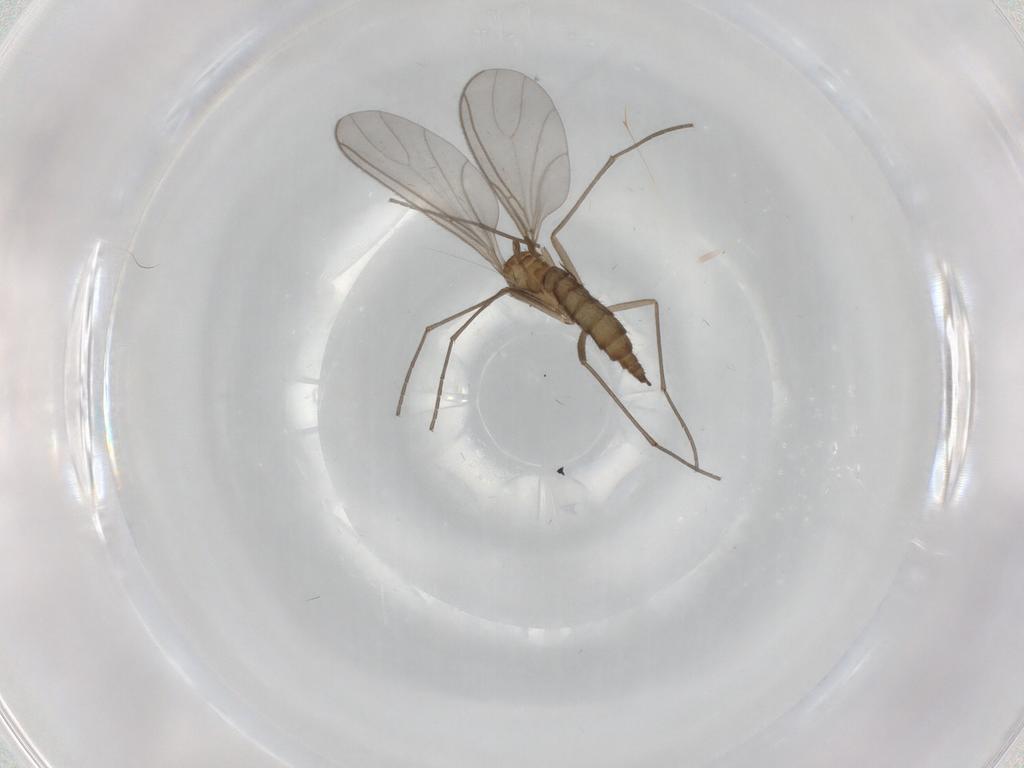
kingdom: Animalia
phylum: Arthropoda
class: Insecta
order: Diptera
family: Sciaridae
